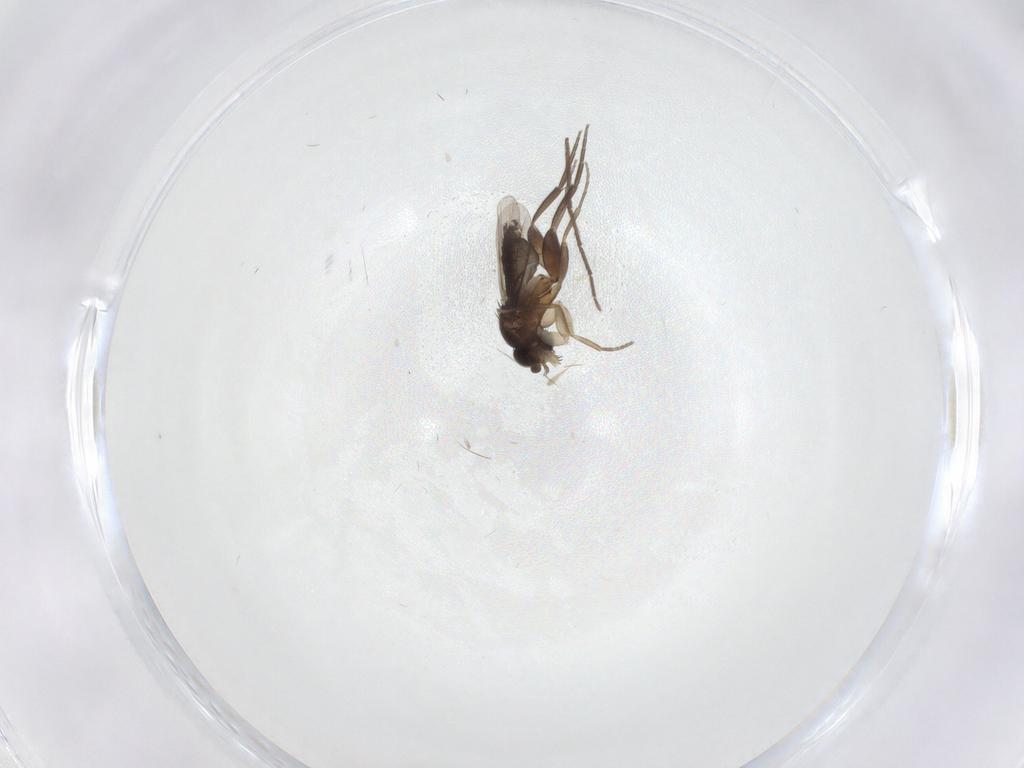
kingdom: Animalia
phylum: Arthropoda
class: Insecta
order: Diptera
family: Phoridae
